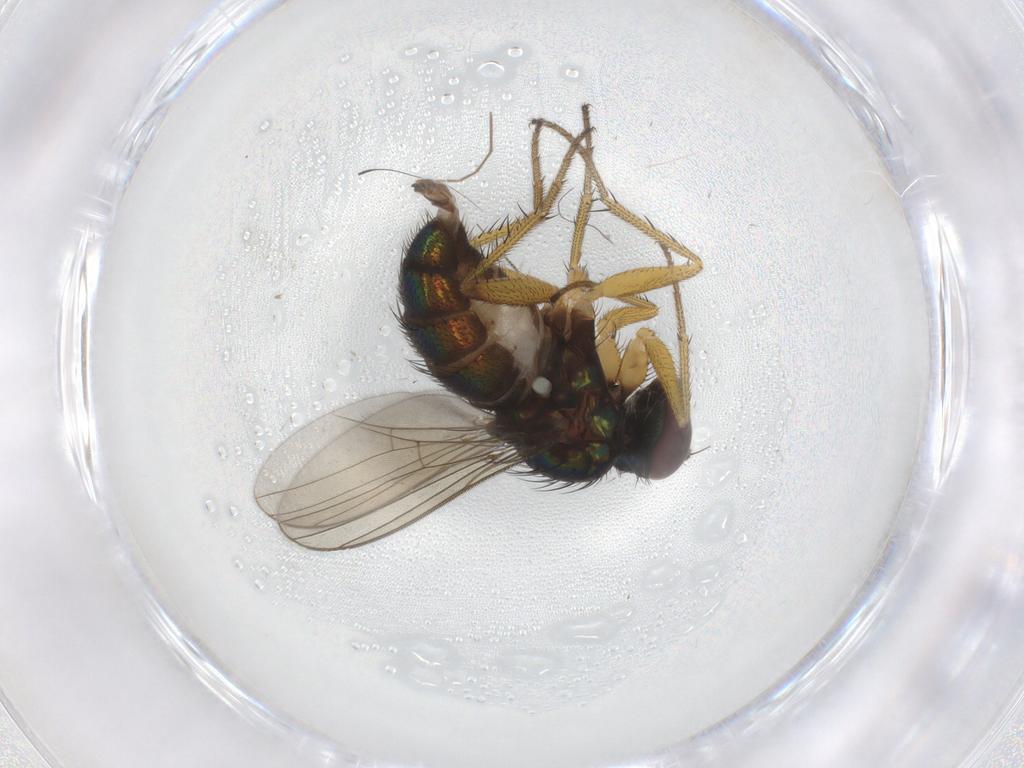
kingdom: Animalia
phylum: Arthropoda
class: Insecta
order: Diptera
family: Dolichopodidae
